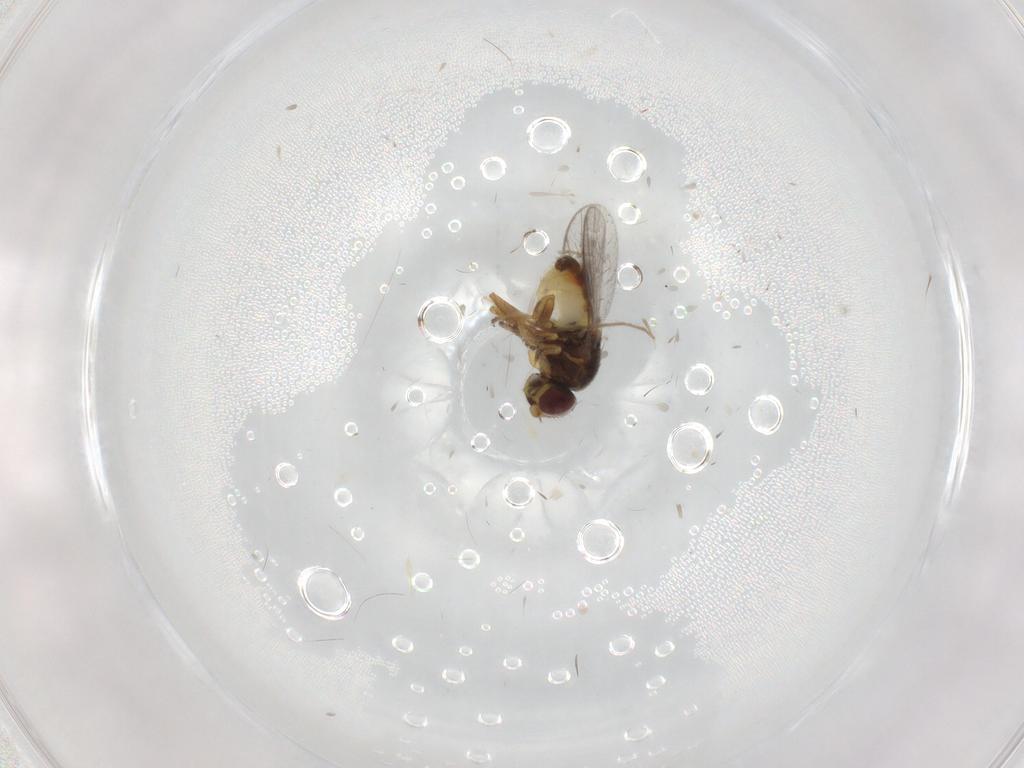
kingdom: Animalia
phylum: Arthropoda
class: Insecta
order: Diptera
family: Chloropidae
